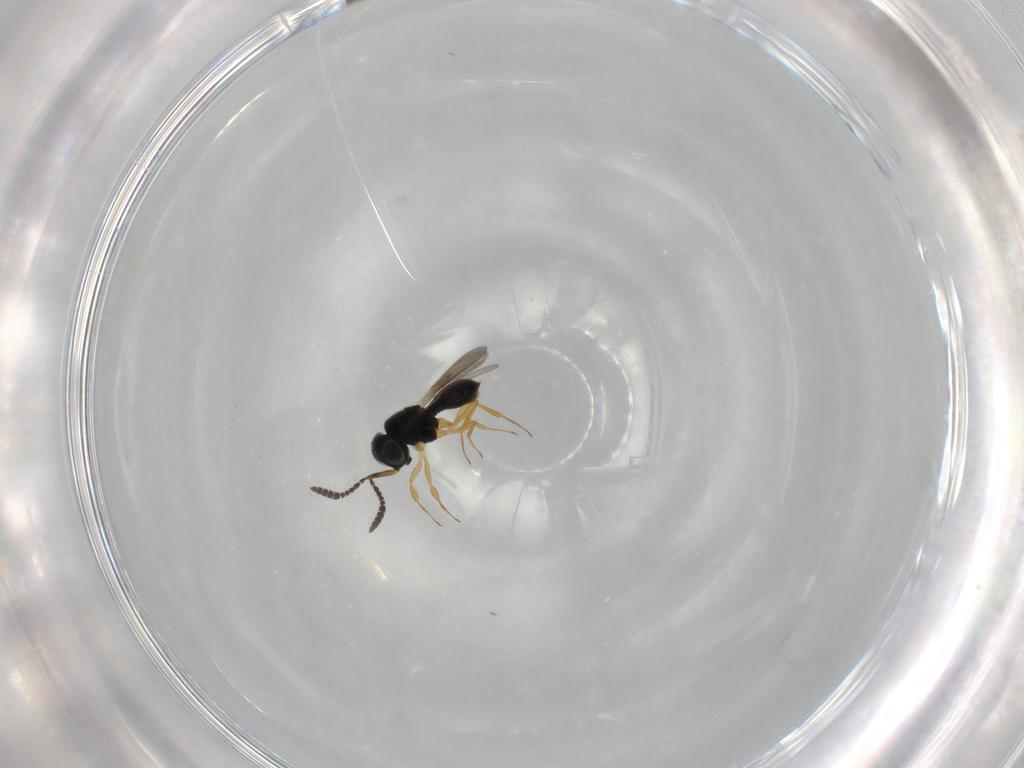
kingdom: Animalia
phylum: Arthropoda
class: Insecta
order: Hymenoptera
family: Scelionidae
